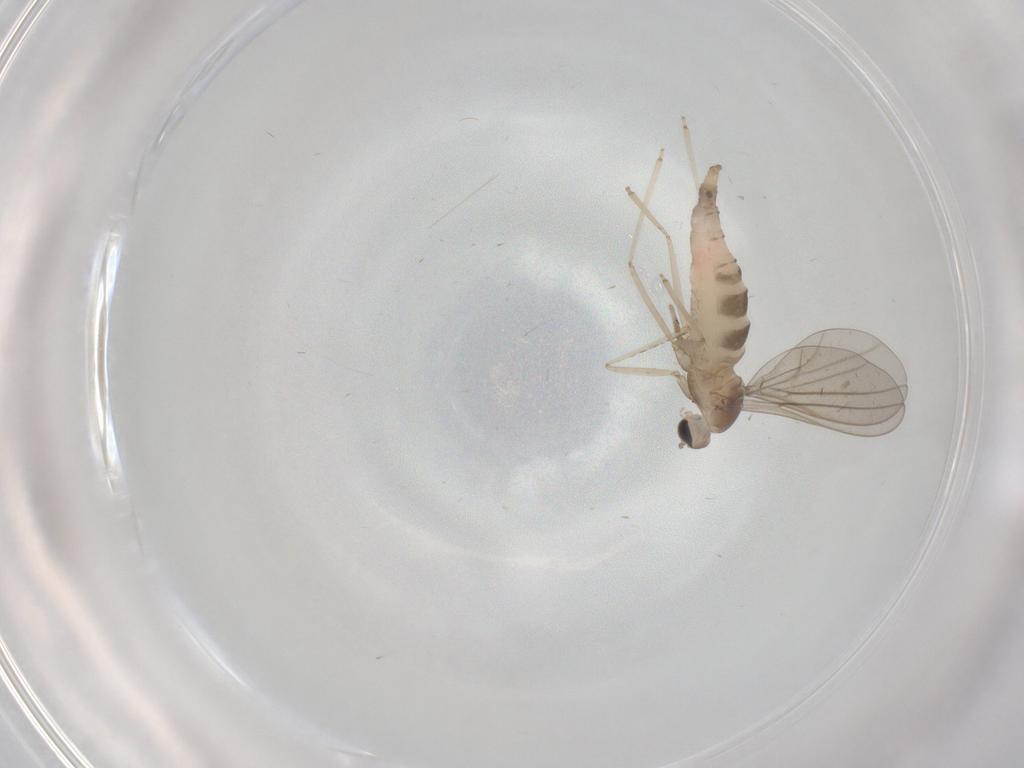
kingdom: Animalia
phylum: Arthropoda
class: Insecta
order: Diptera
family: Cecidomyiidae
